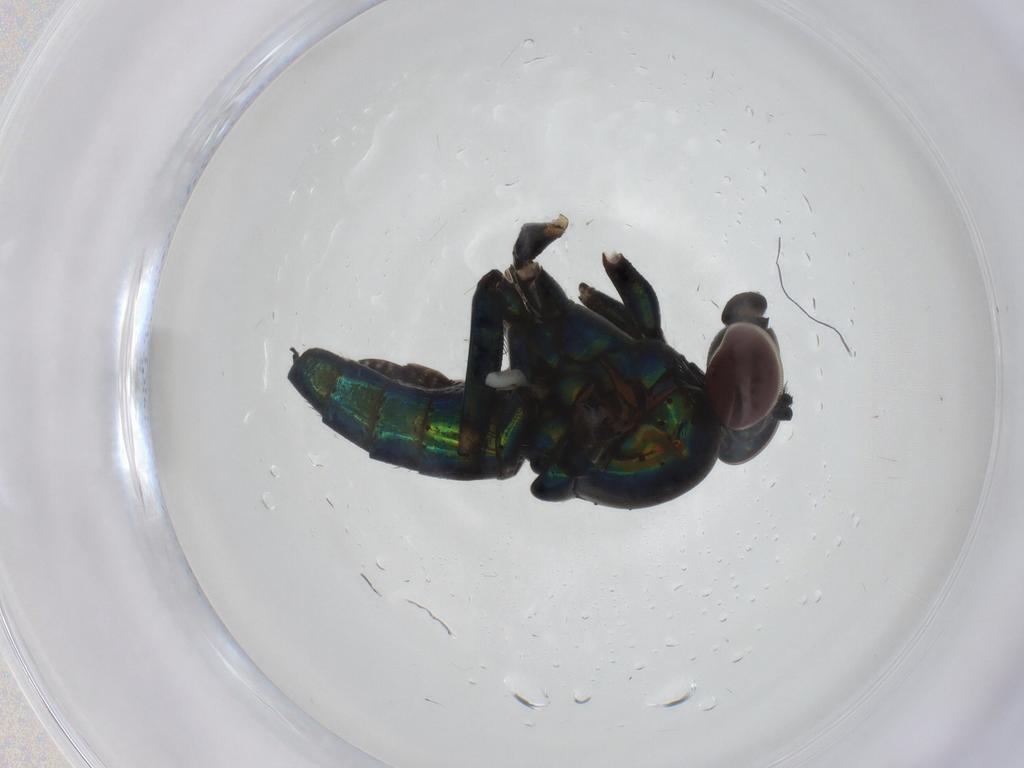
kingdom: Animalia
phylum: Arthropoda
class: Insecta
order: Diptera
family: Dolichopodidae
